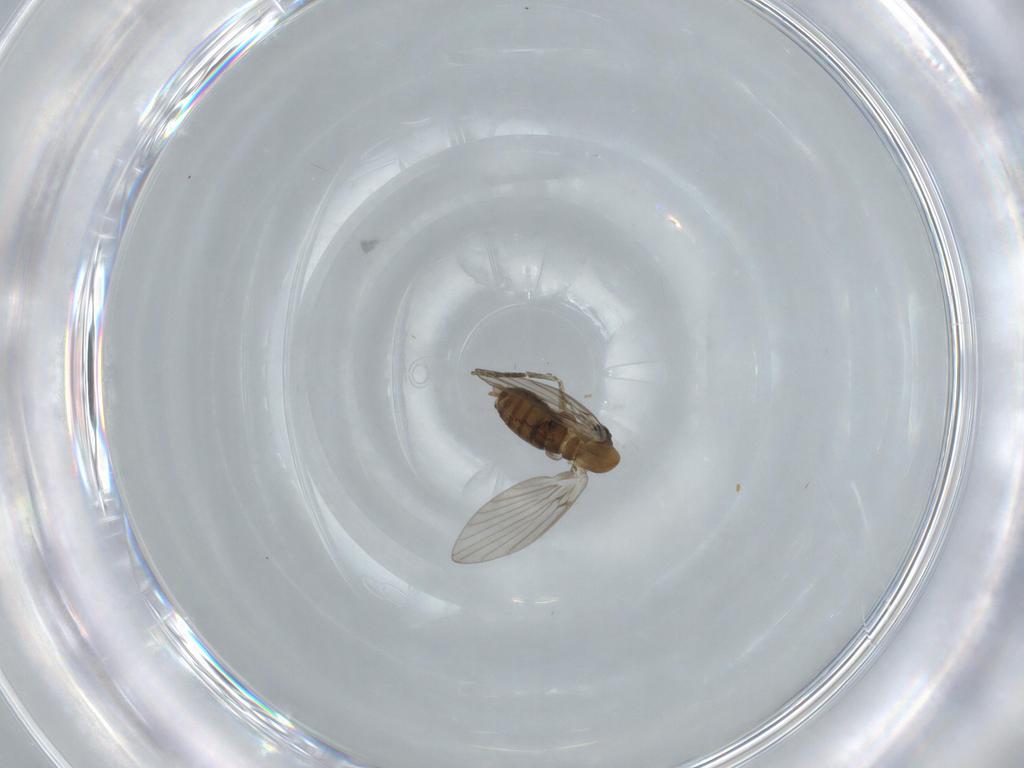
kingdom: Animalia
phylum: Arthropoda
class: Insecta
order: Diptera
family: Psychodidae
